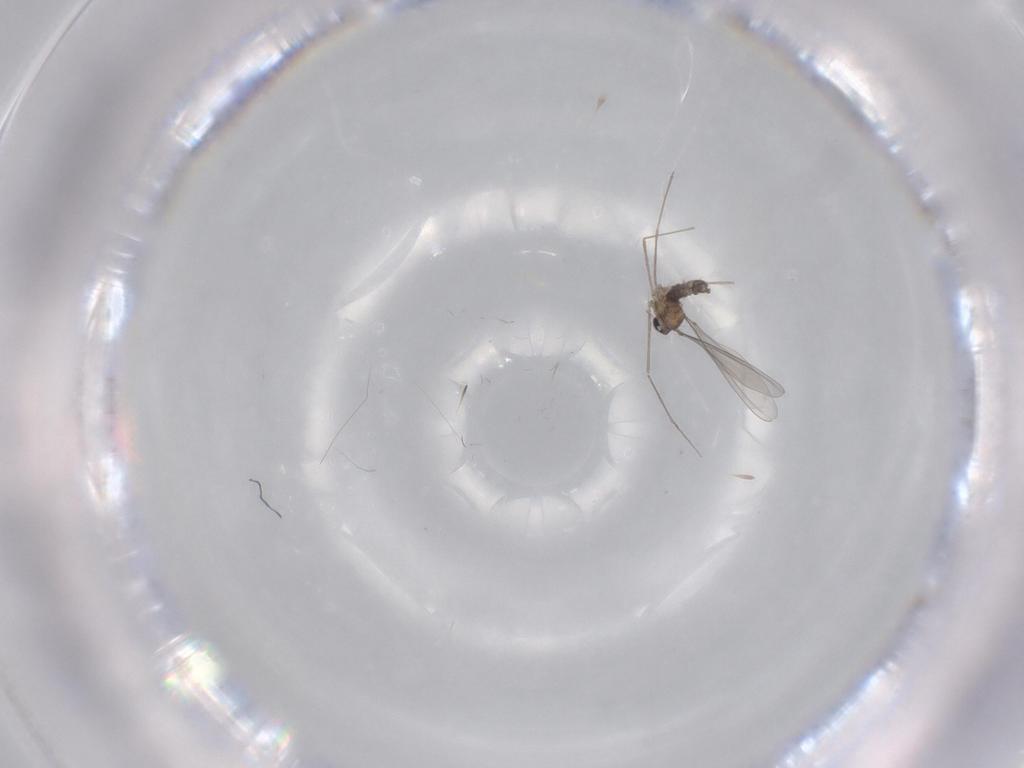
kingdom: Animalia
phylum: Arthropoda
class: Insecta
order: Diptera
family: Cecidomyiidae
